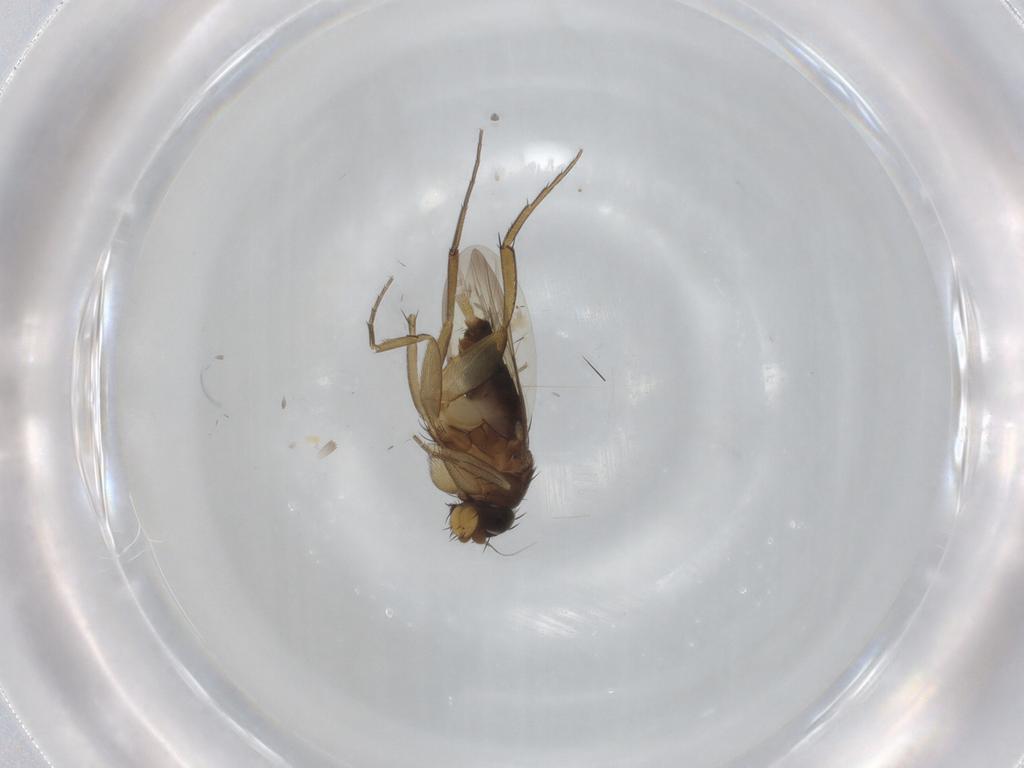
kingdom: Animalia
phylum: Arthropoda
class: Insecta
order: Diptera
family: Phoridae
